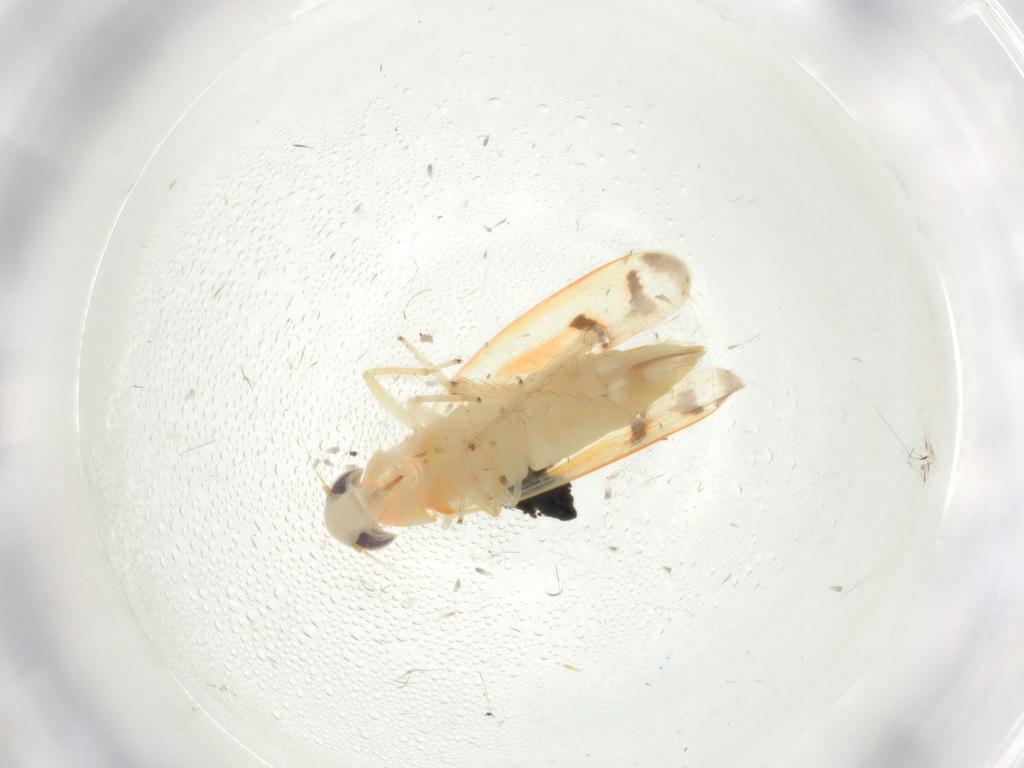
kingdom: Animalia
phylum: Arthropoda
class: Insecta
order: Hemiptera
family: Cicadellidae
